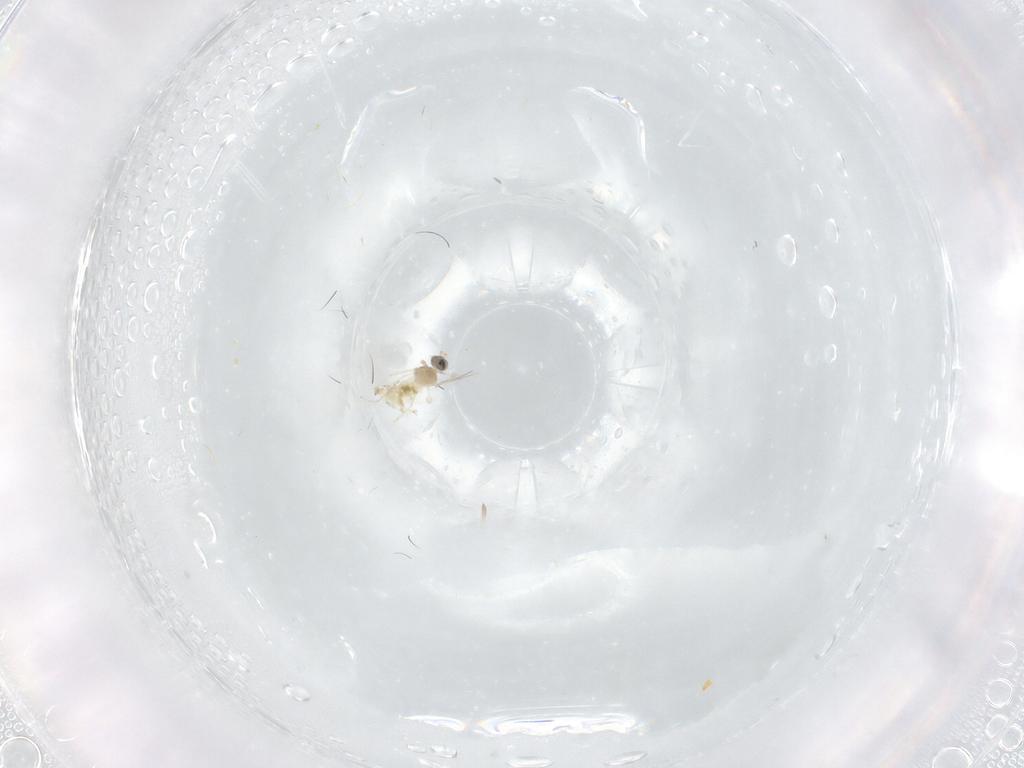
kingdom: Animalia
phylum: Arthropoda
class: Insecta
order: Diptera
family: Cecidomyiidae
